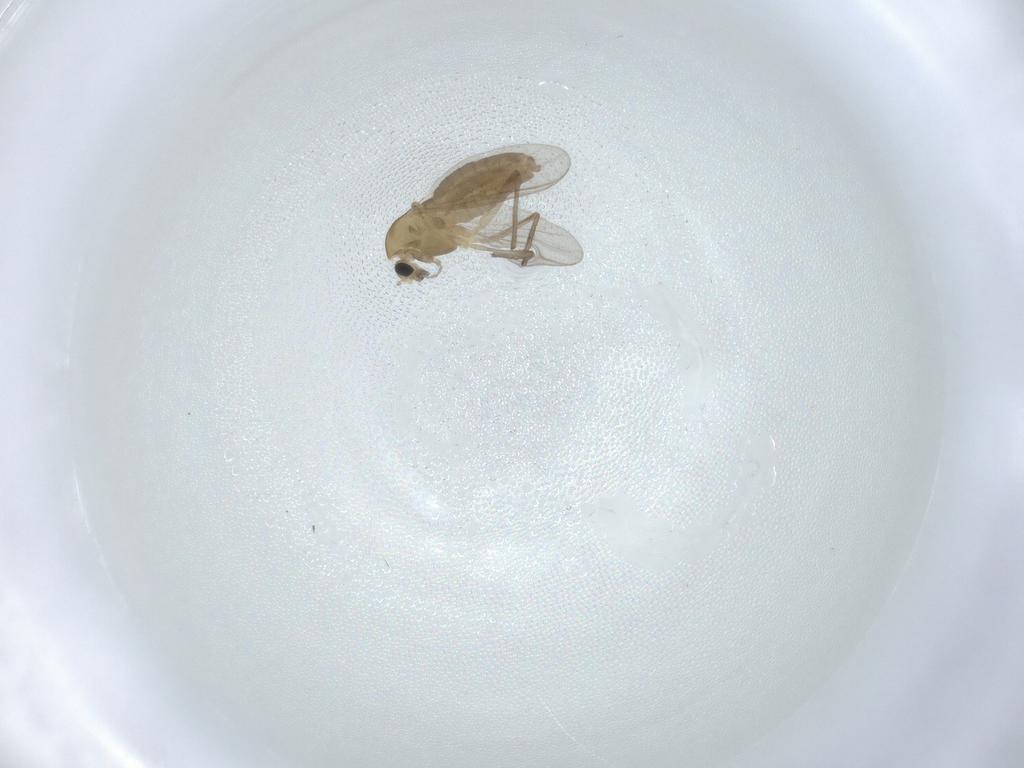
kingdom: Animalia
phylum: Arthropoda
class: Insecta
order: Diptera
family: Chironomidae
